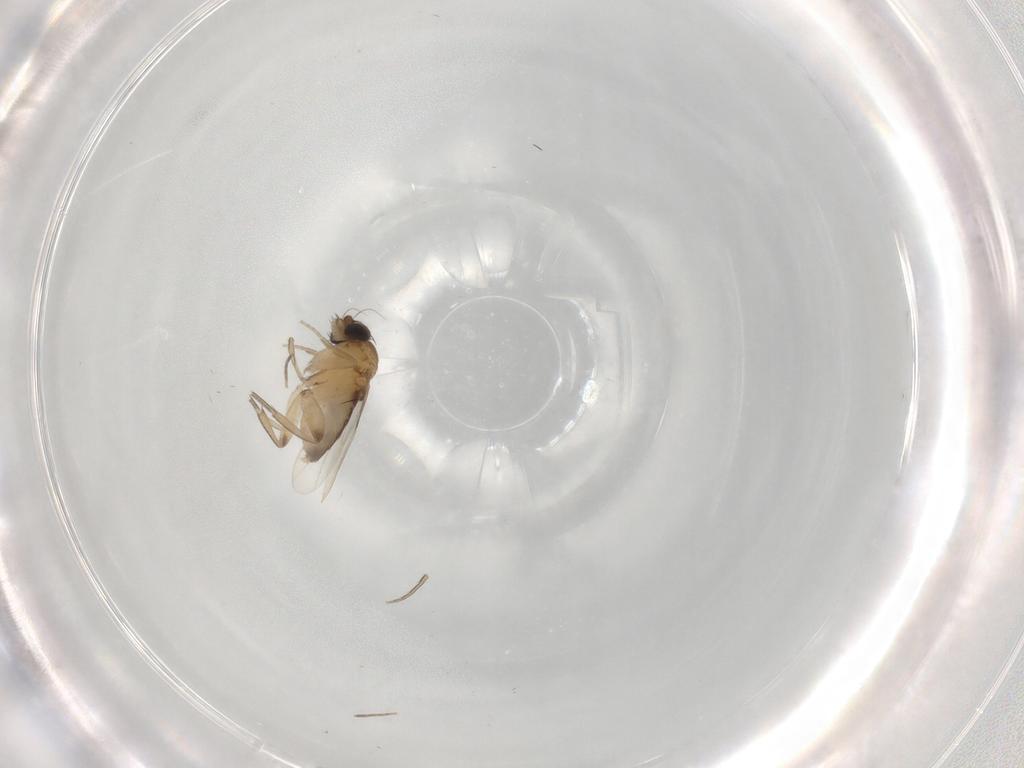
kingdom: Animalia
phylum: Arthropoda
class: Insecta
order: Diptera
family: Phoridae
